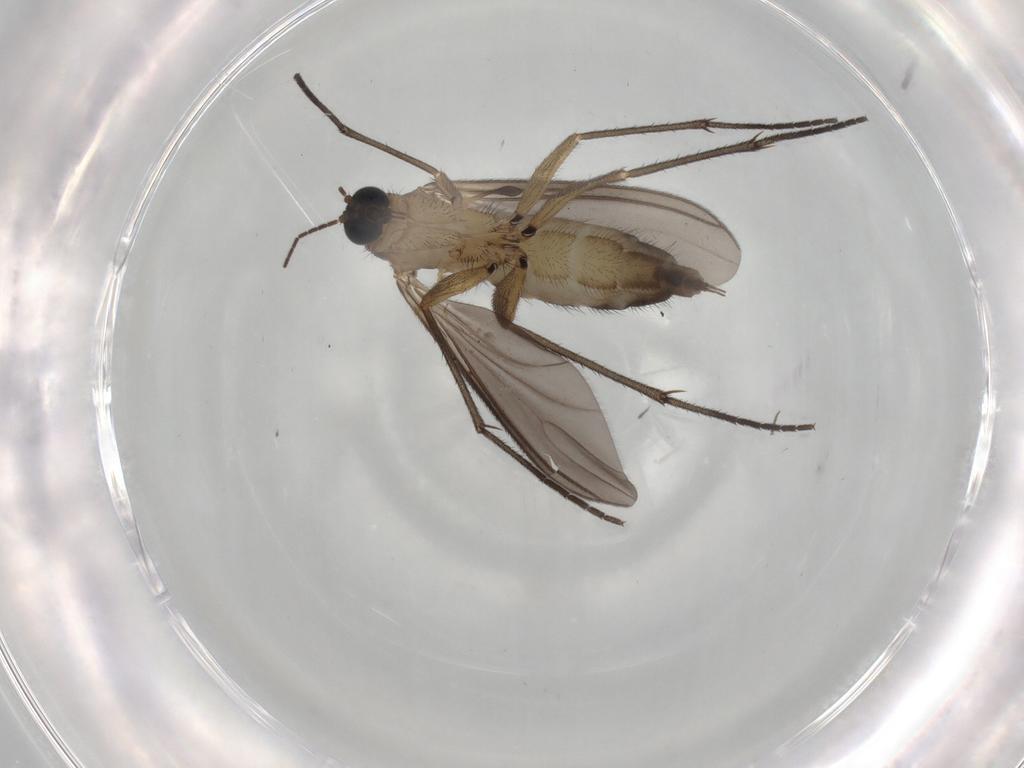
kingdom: Animalia
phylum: Arthropoda
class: Insecta
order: Diptera
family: Sciaridae
